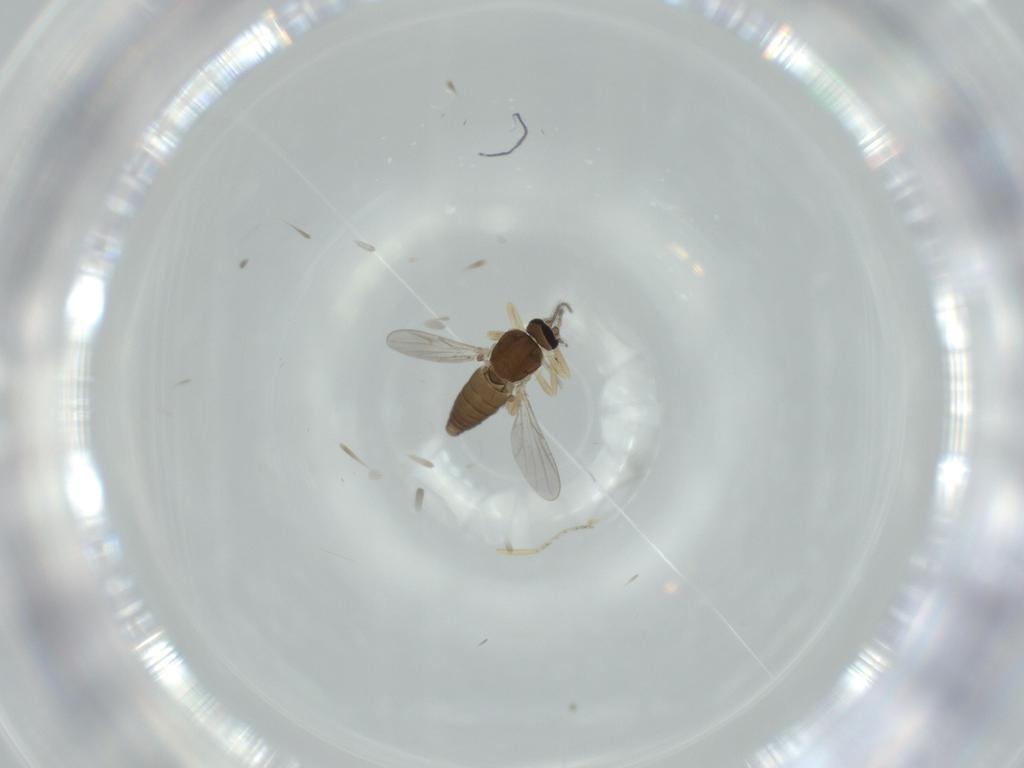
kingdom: Animalia
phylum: Arthropoda
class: Insecta
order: Diptera
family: Ceratopogonidae
